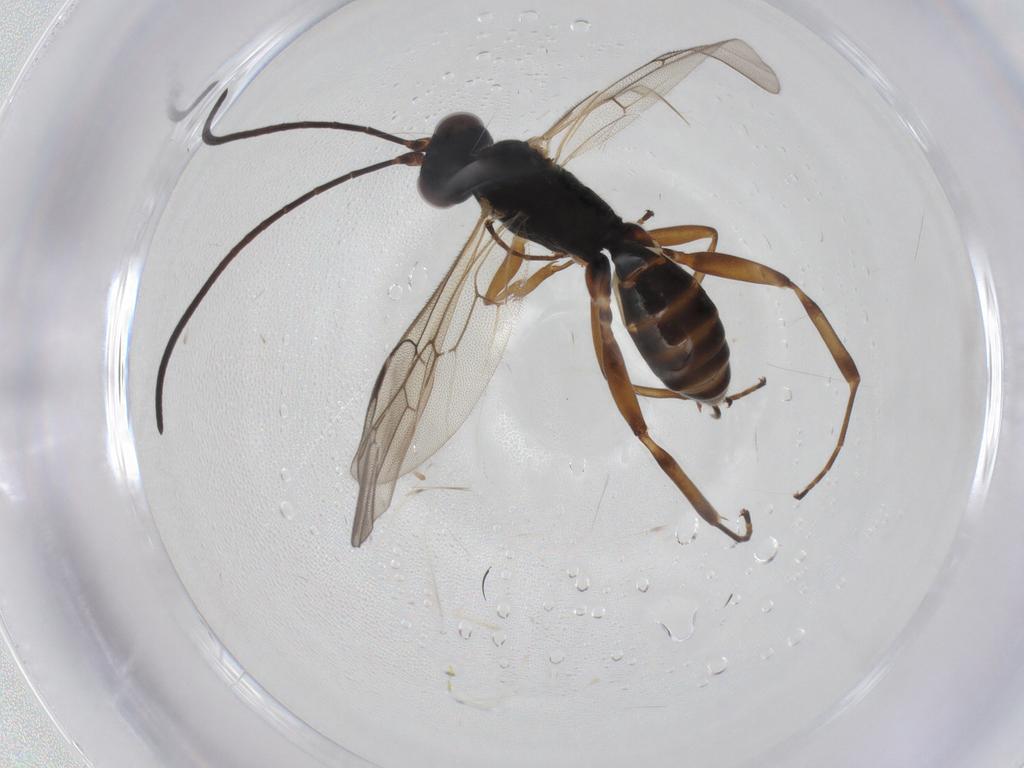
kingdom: Animalia
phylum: Arthropoda
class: Insecta
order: Hymenoptera
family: Ichneumonidae
